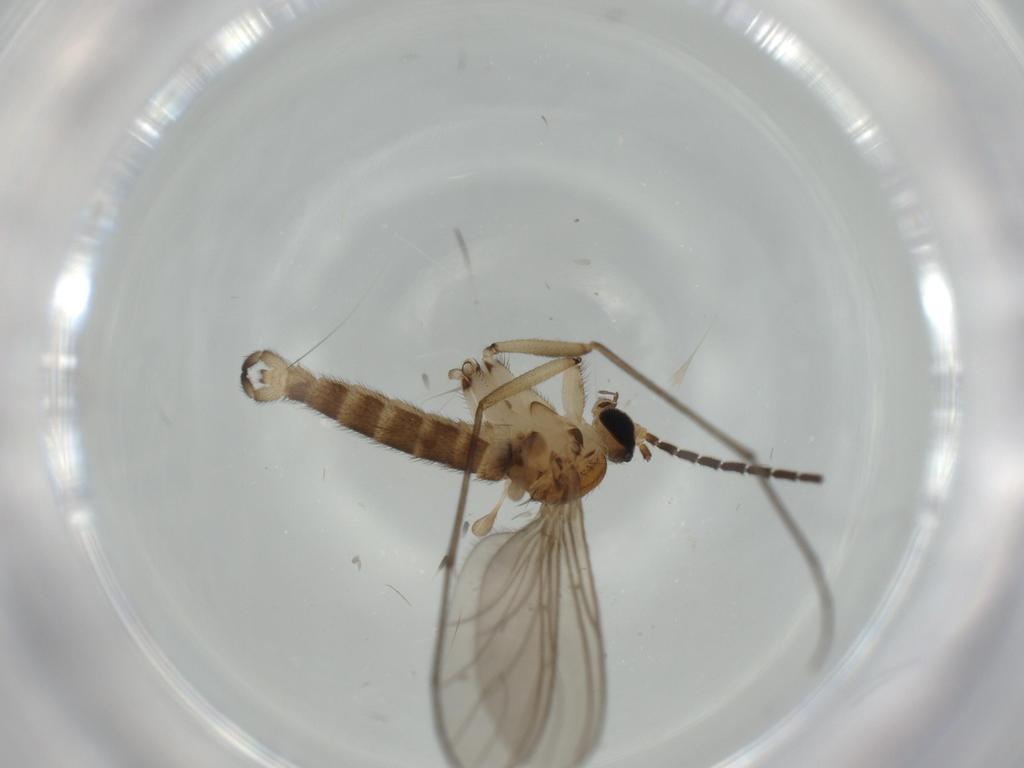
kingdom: Animalia
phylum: Arthropoda
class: Insecta
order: Diptera
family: Sciaridae
